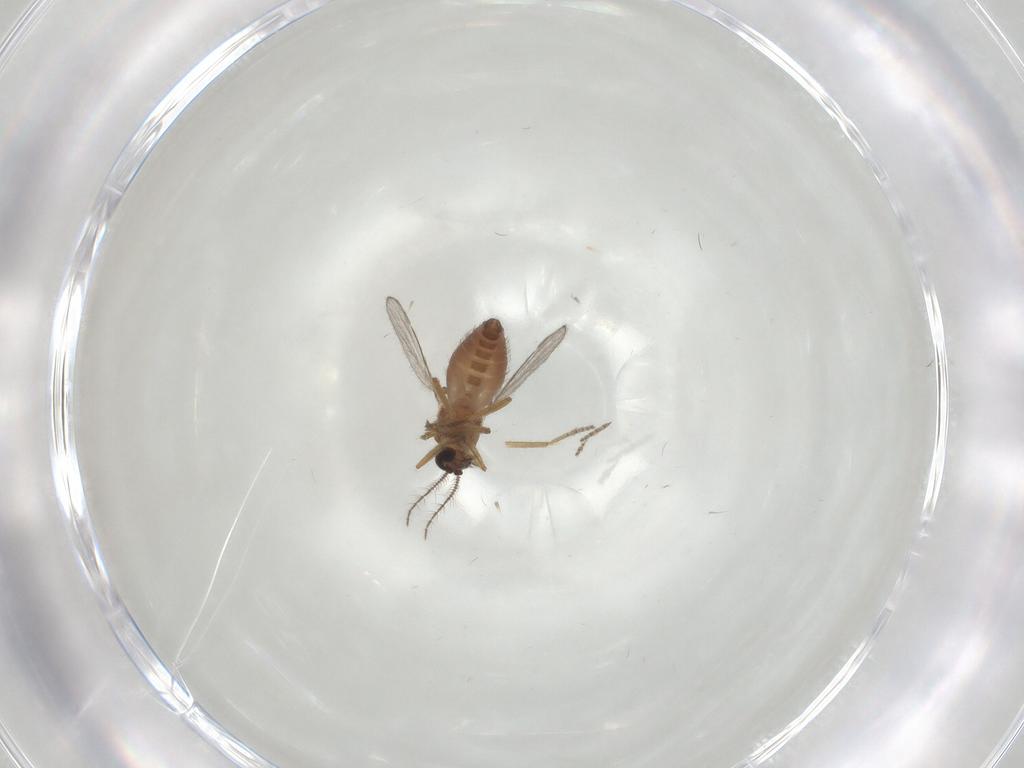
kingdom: Animalia
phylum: Arthropoda
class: Insecta
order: Diptera
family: Ceratopogonidae
